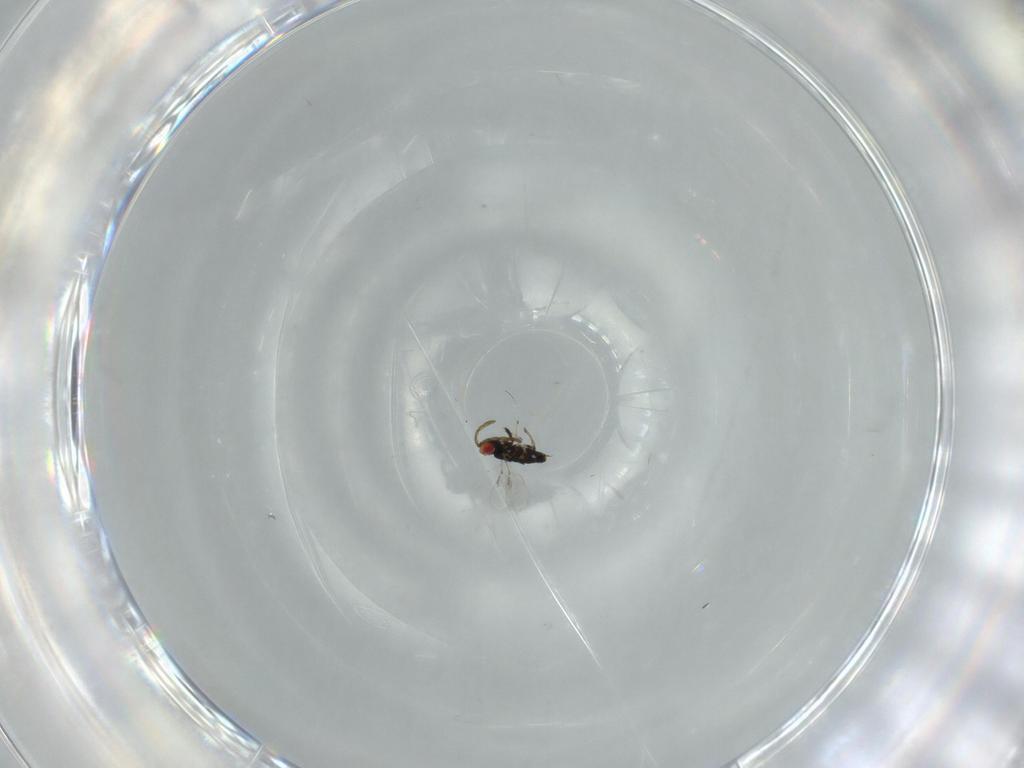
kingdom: Animalia
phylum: Arthropoda
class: Insecta
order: Hymenoptera
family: Azotidae
